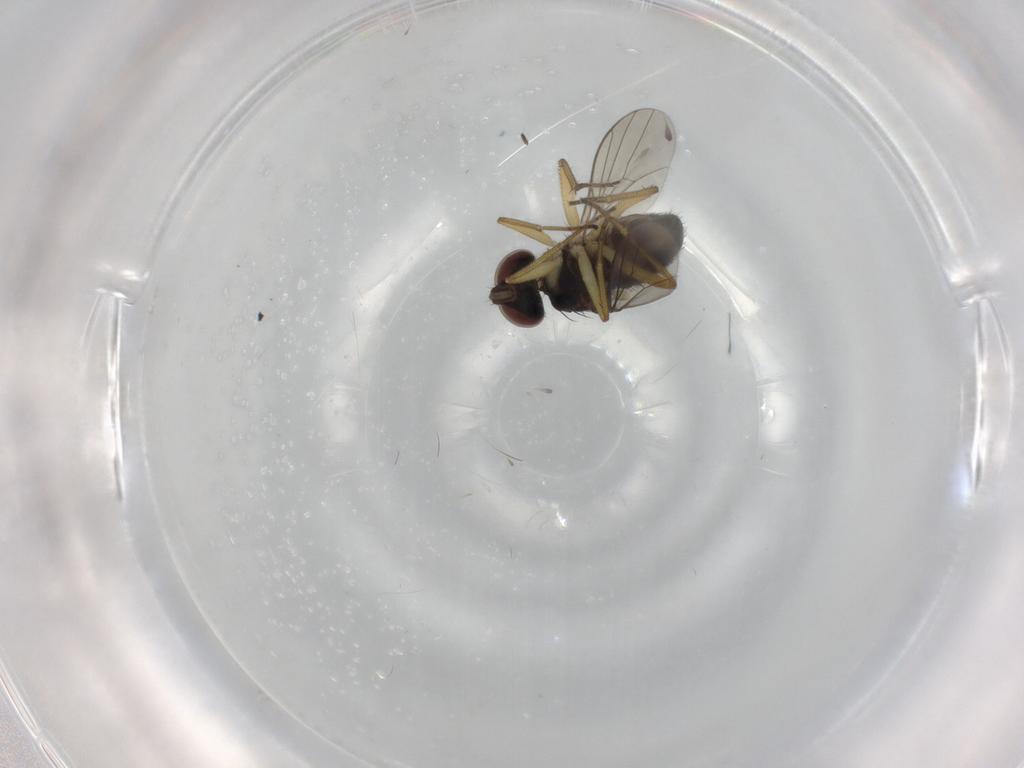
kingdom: Animalia
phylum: Arthropoda
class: Insecta
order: Diptera
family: Dolichopodidae
